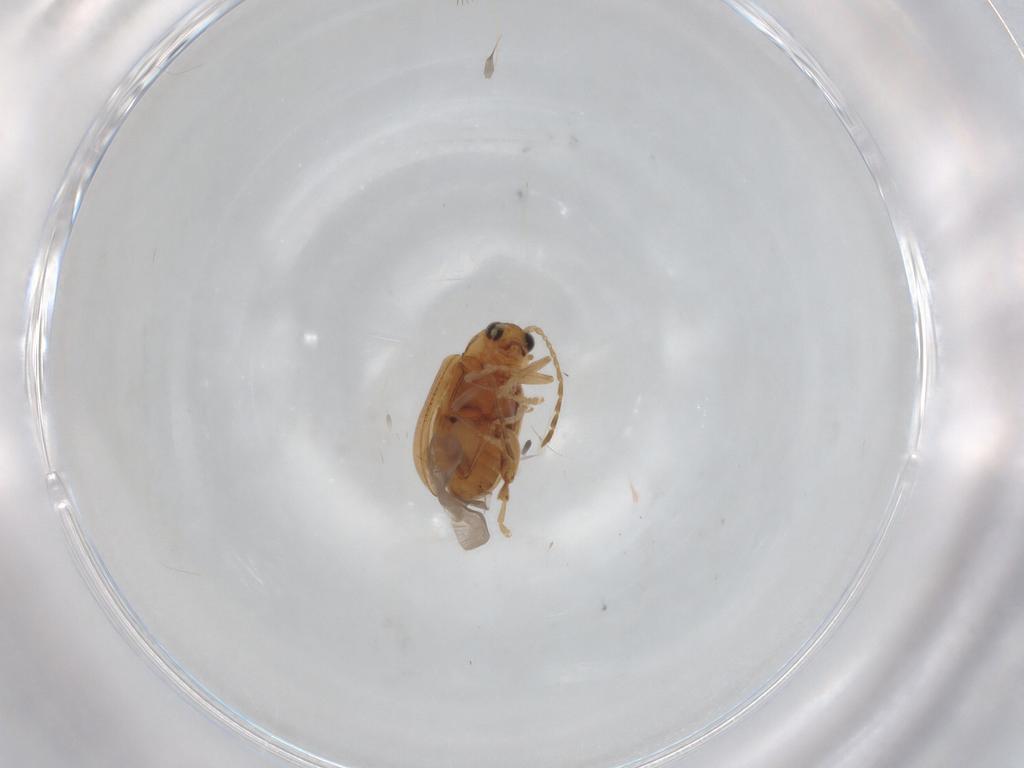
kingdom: Animalia
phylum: Arthropoda
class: Insecta
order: Coleoptera
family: Chrysomelidae
